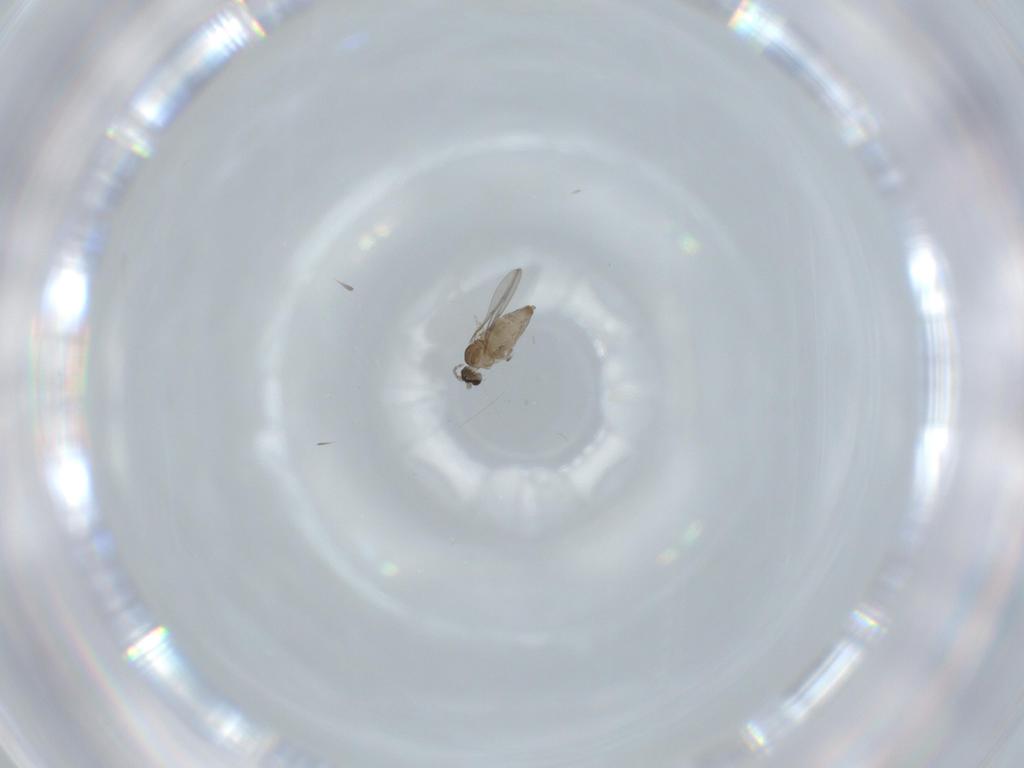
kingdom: Animalia
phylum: Arthropoda
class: Insecta
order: Diptera
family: Cecidomyiidae
